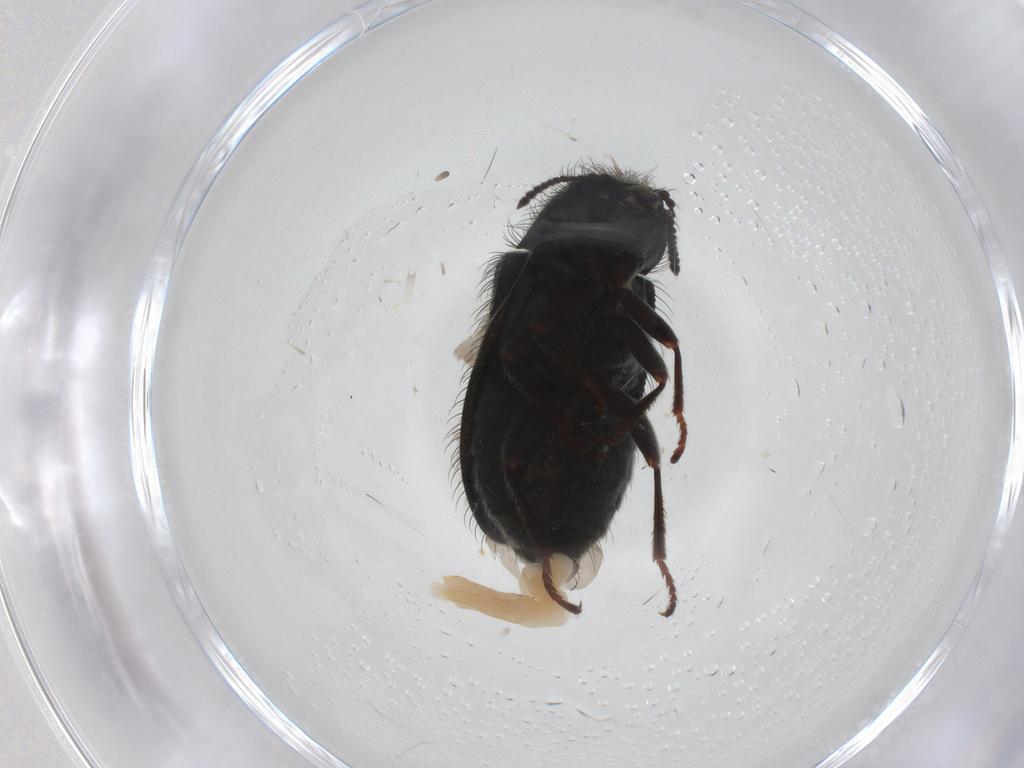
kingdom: Animalia
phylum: Arthropoda
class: Insecta
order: Coleoptera
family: Melyridae
